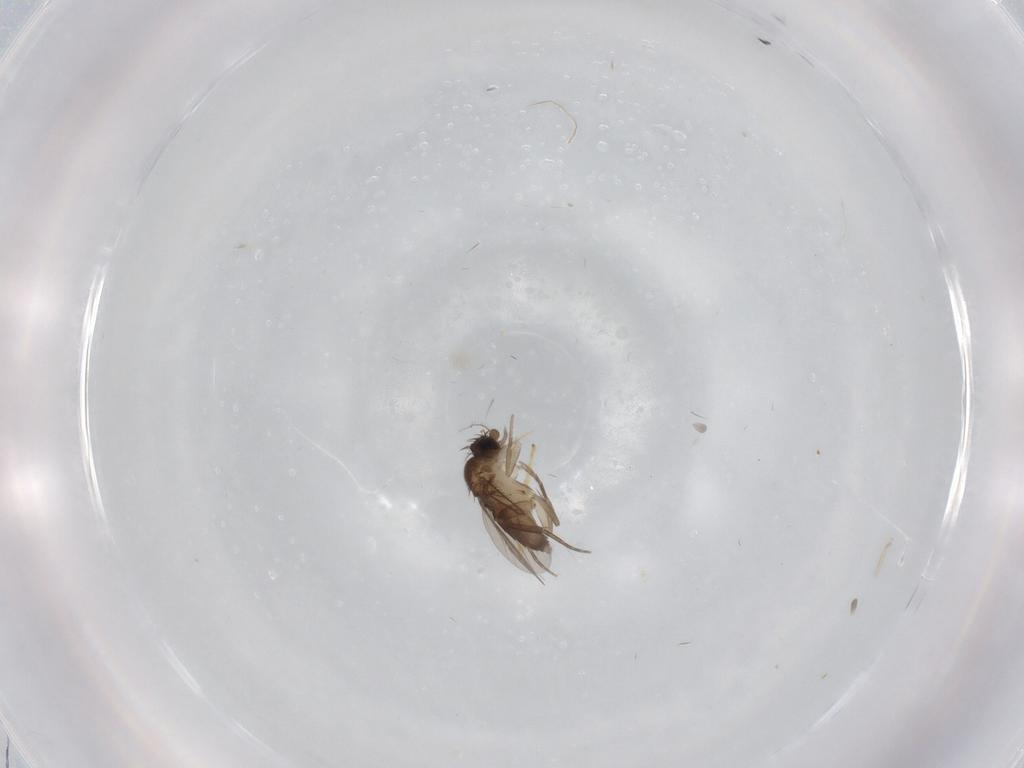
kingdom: Animalia
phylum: Arthropoda
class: Insecta
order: Diptera
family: Phoridae
